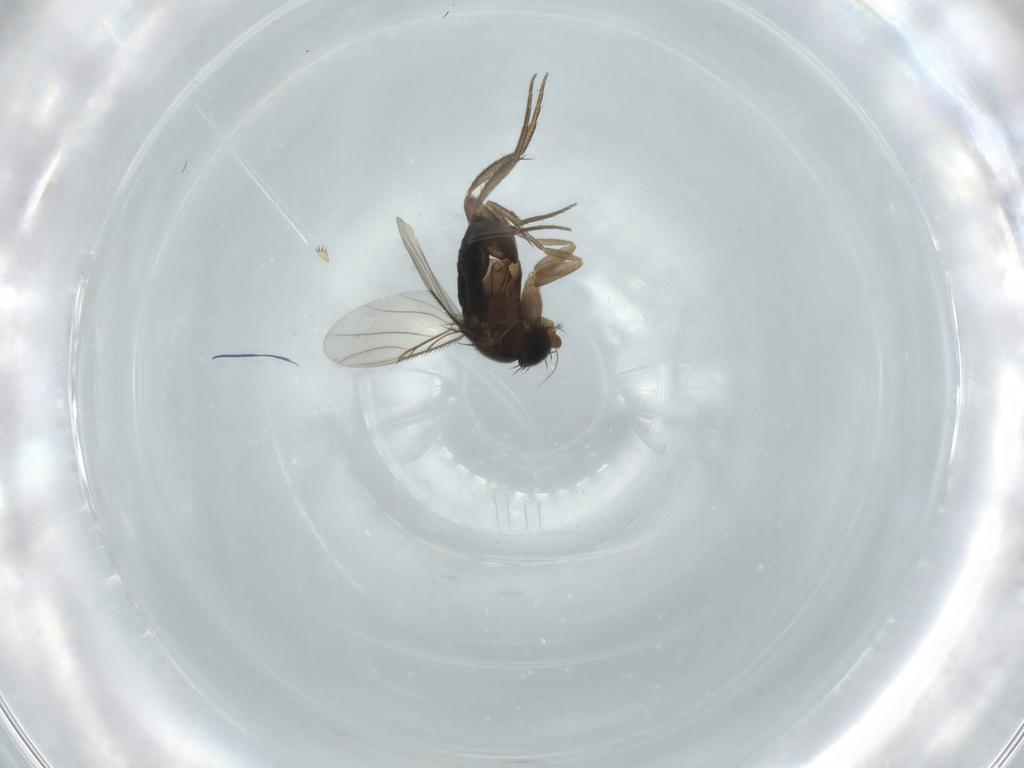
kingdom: Animalia
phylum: Arthropoda
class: Insecta
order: Diptera
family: Phoridae
